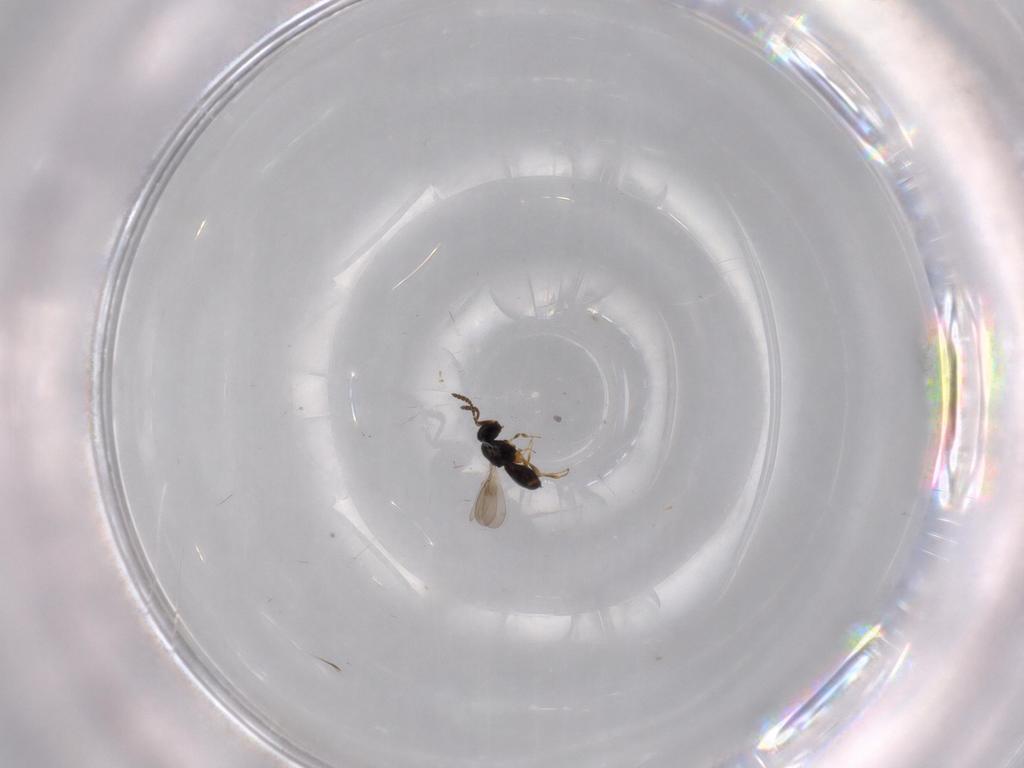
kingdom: Animalia
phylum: Arthropoda
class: Insecta
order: Hymenoptera
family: Scelionidae
